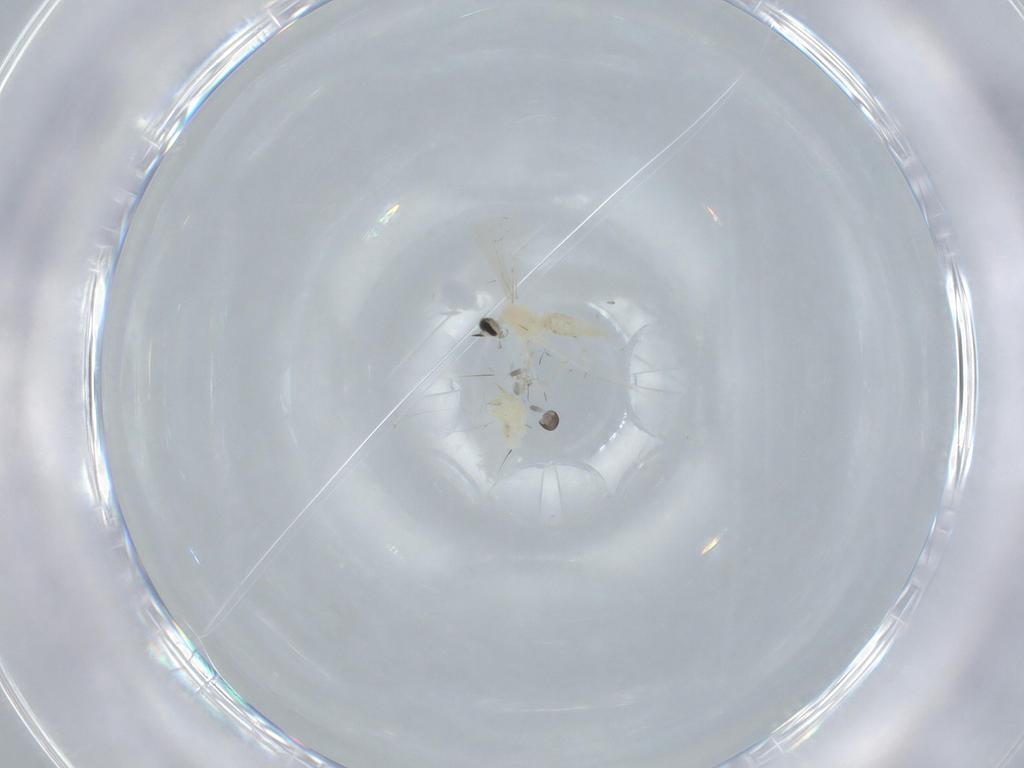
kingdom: Animalia
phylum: Arthropoda
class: Insecta
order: Diptera
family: Cecidomyiidae
